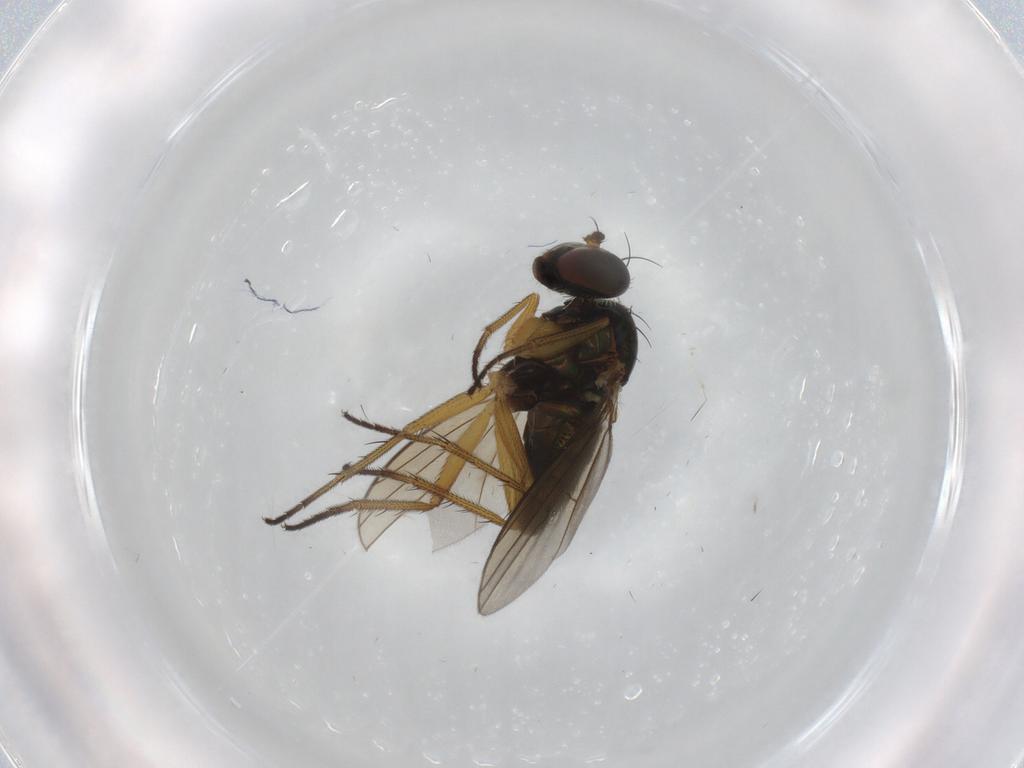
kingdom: Animalia
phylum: Arthropoda
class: Insecta
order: Diptera
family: Dolichopodidae
